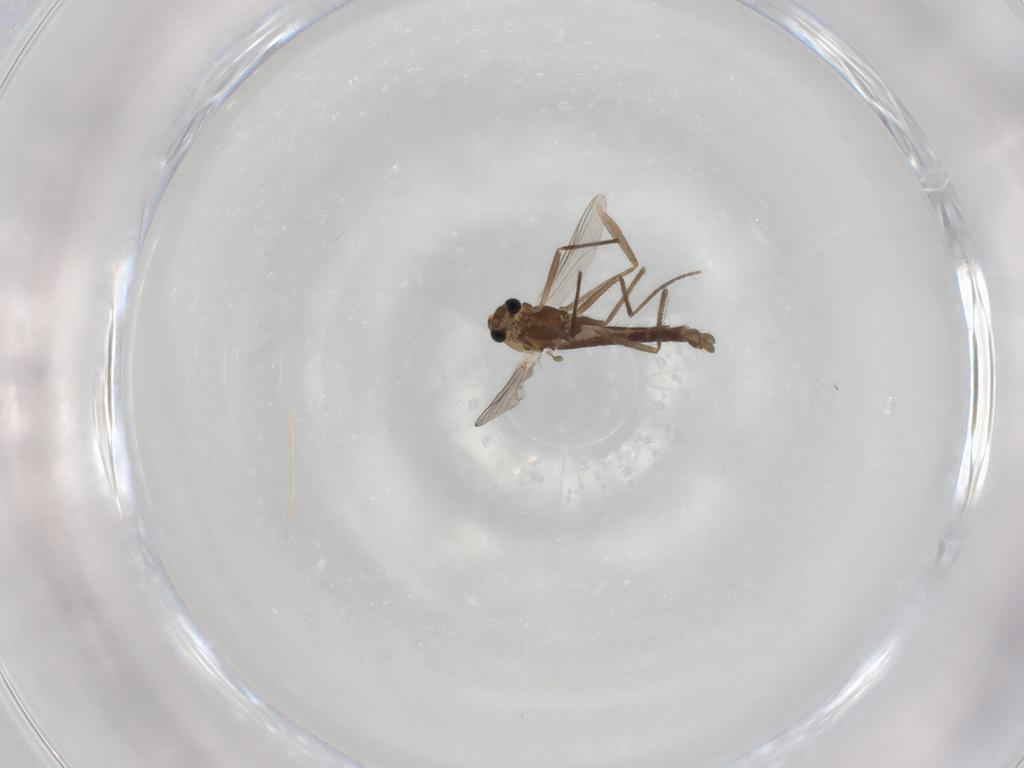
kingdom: Animalia
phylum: Arthropoda
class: Insecta
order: Diptera
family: Chironomidae
